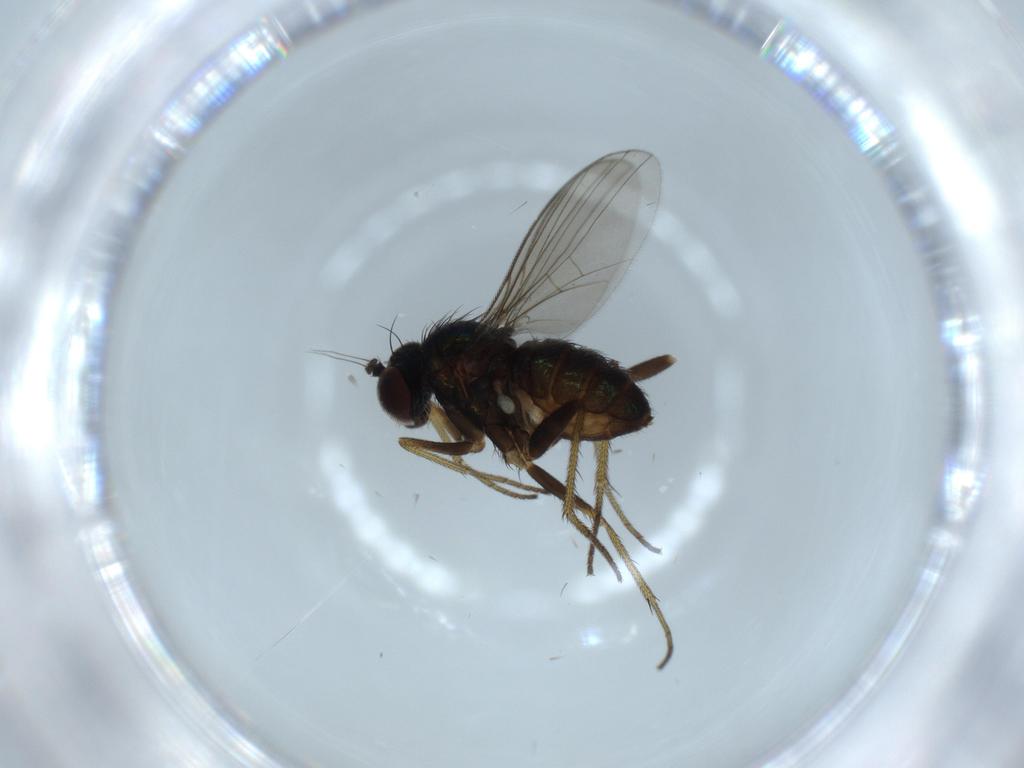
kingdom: Animalia
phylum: Arthropoda
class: Insecta
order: Diptera
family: Dolichopodidae
